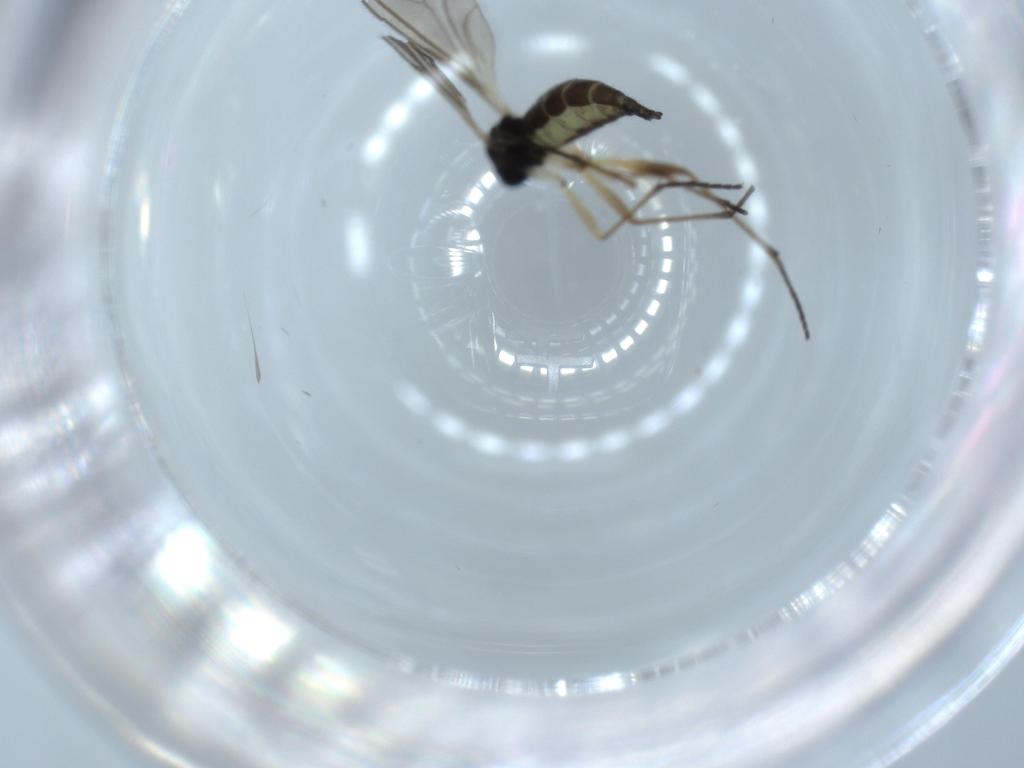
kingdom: Animalia
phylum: Arthropoda
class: Insecta
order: Diptera
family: Sciaridae
